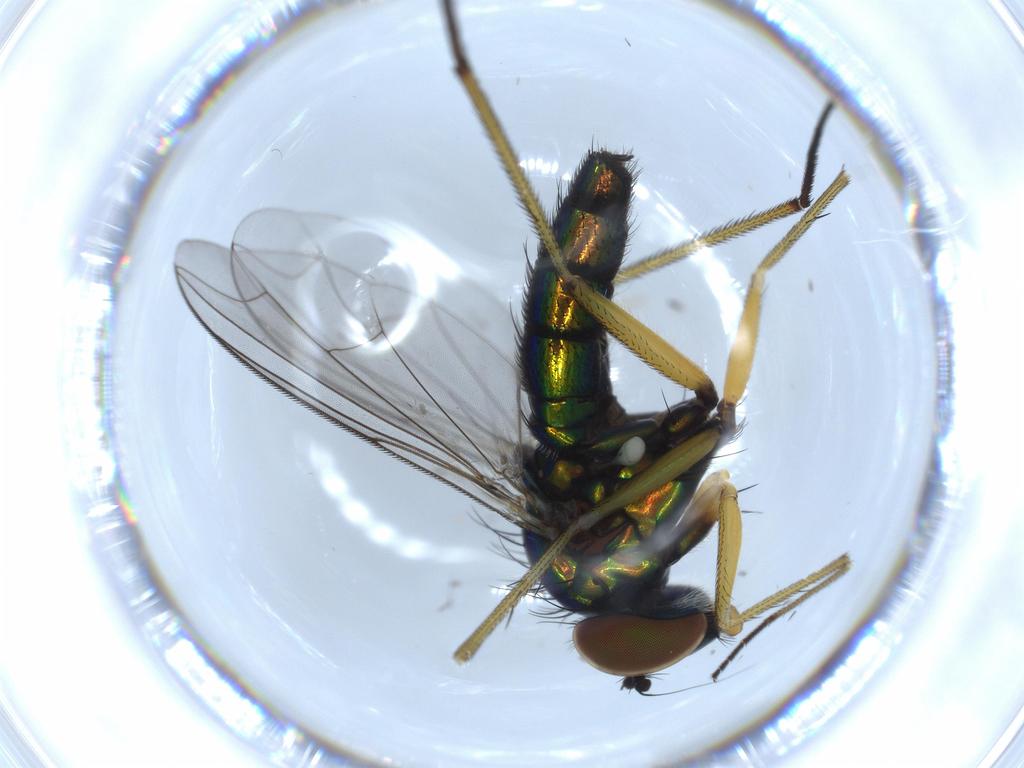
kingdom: Animalia
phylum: Arthropoda
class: Insecta
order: Diptera
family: Dolichopodidae
